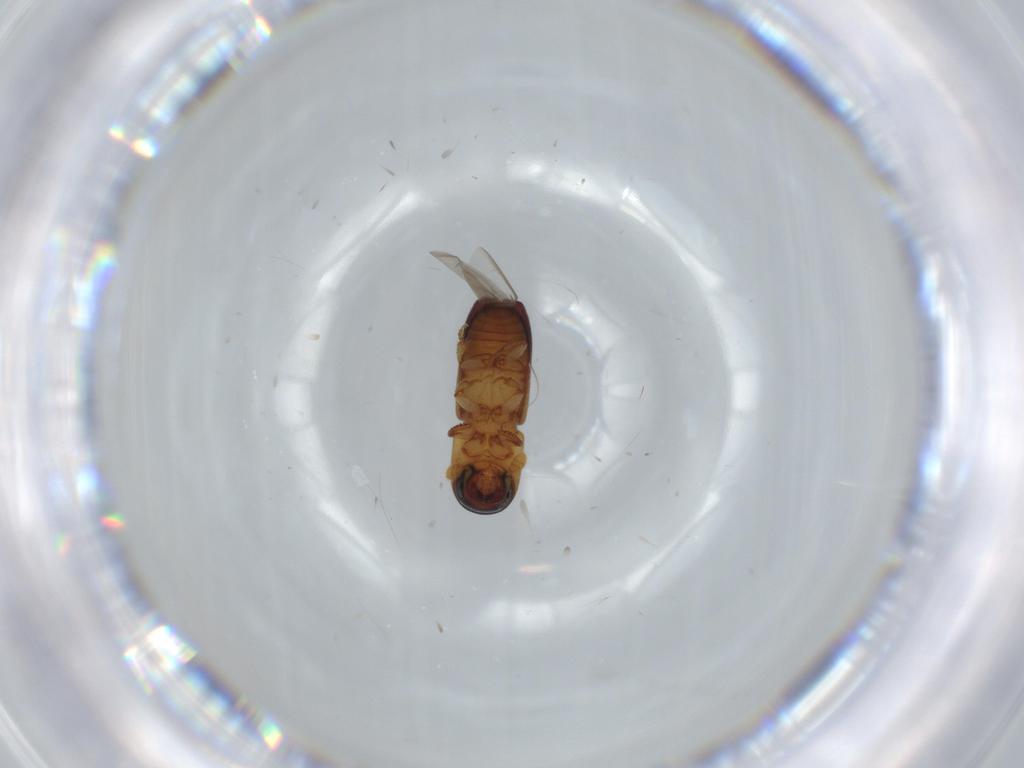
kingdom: Animalia
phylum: Arthropoda
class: Insecta
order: Coleoptera
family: Curculionidae
